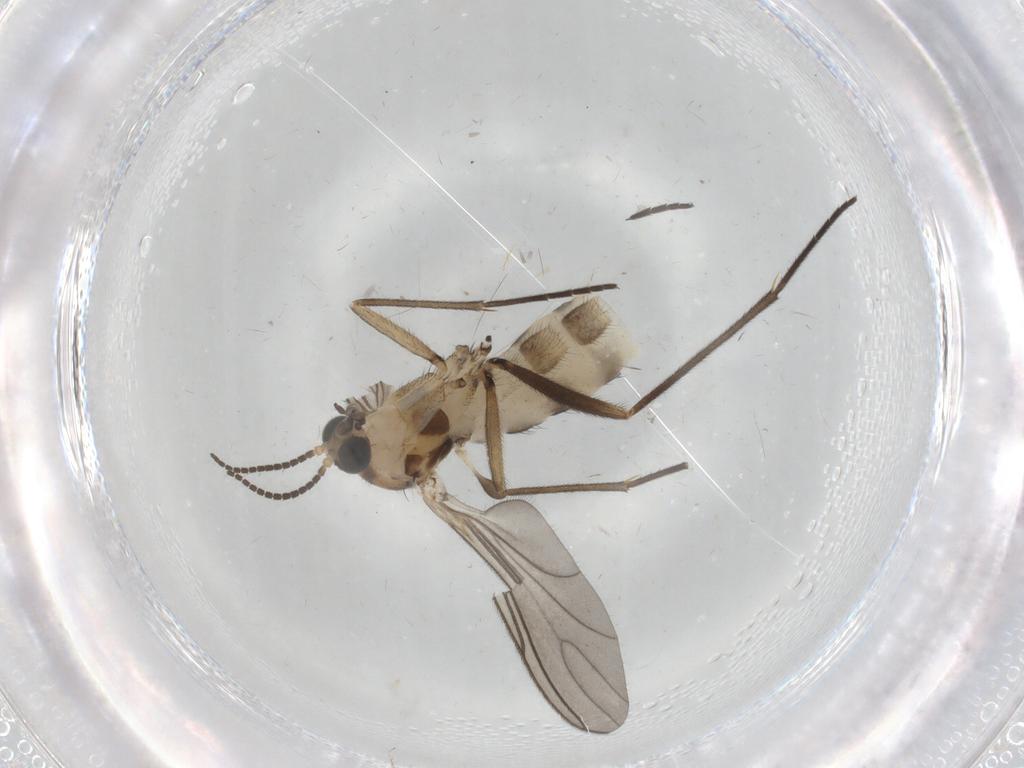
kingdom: Animalia
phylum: Arthropoda
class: Insecta
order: Diptera
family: Sciaridae
